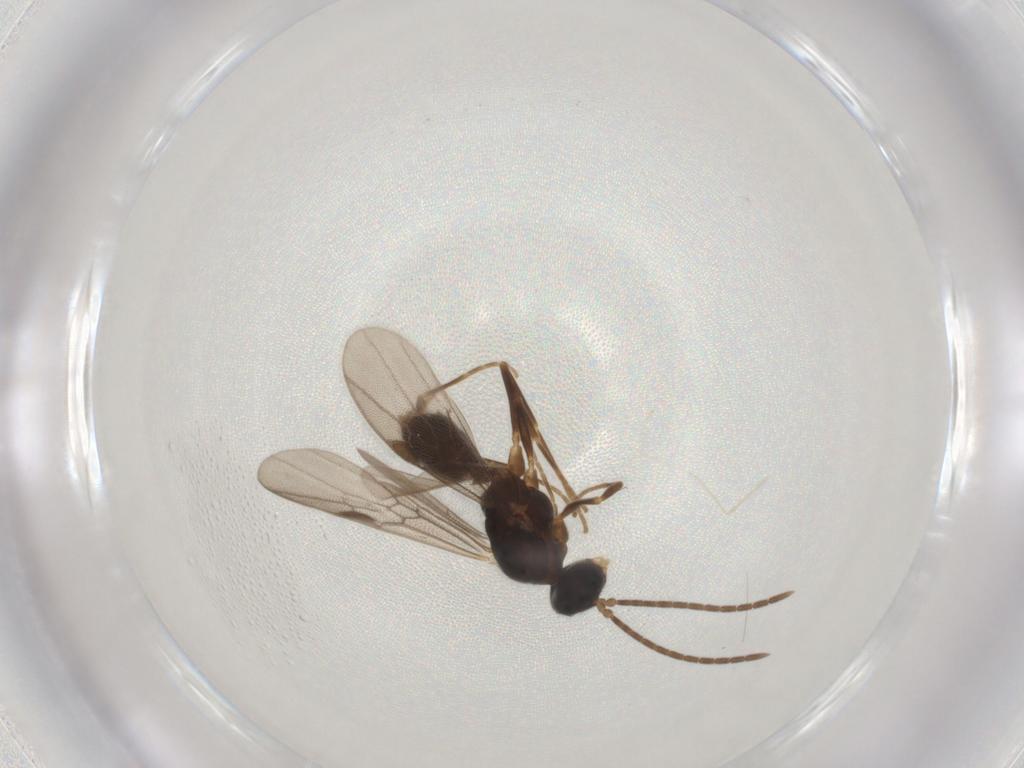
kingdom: Animalia
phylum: Arthropoda
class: Insecta
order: Hymenoptera
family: Formicidae
